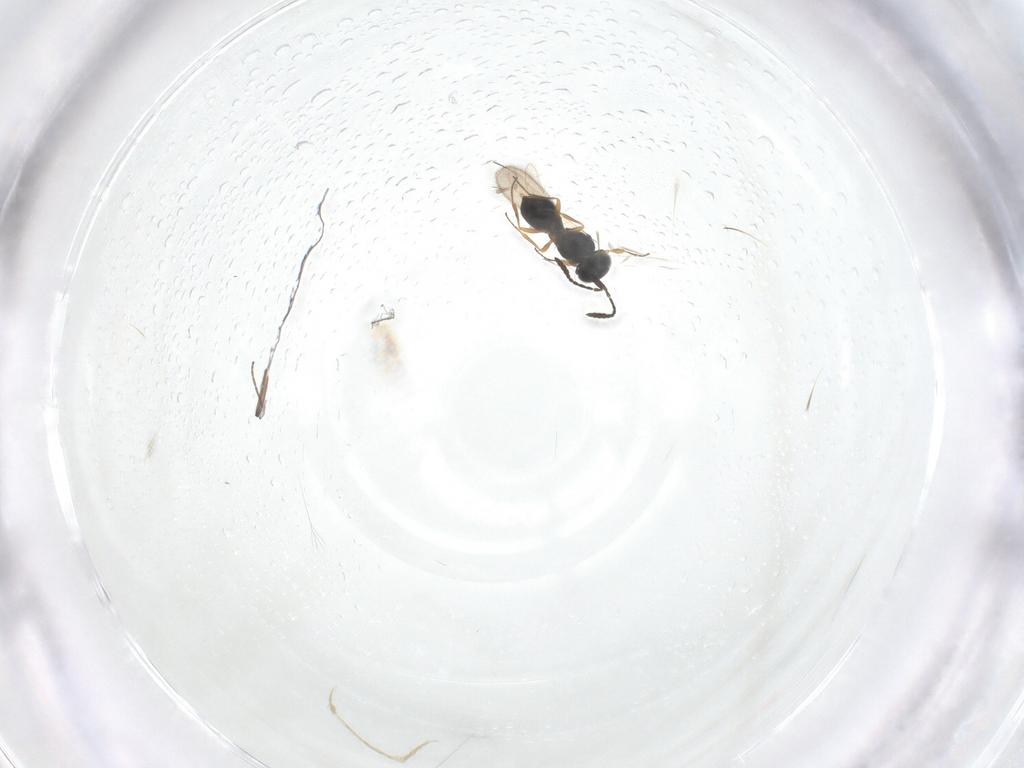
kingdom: Animalia
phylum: Arthropoda
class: Insecta
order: Hymenoptera
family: Scelionidae
